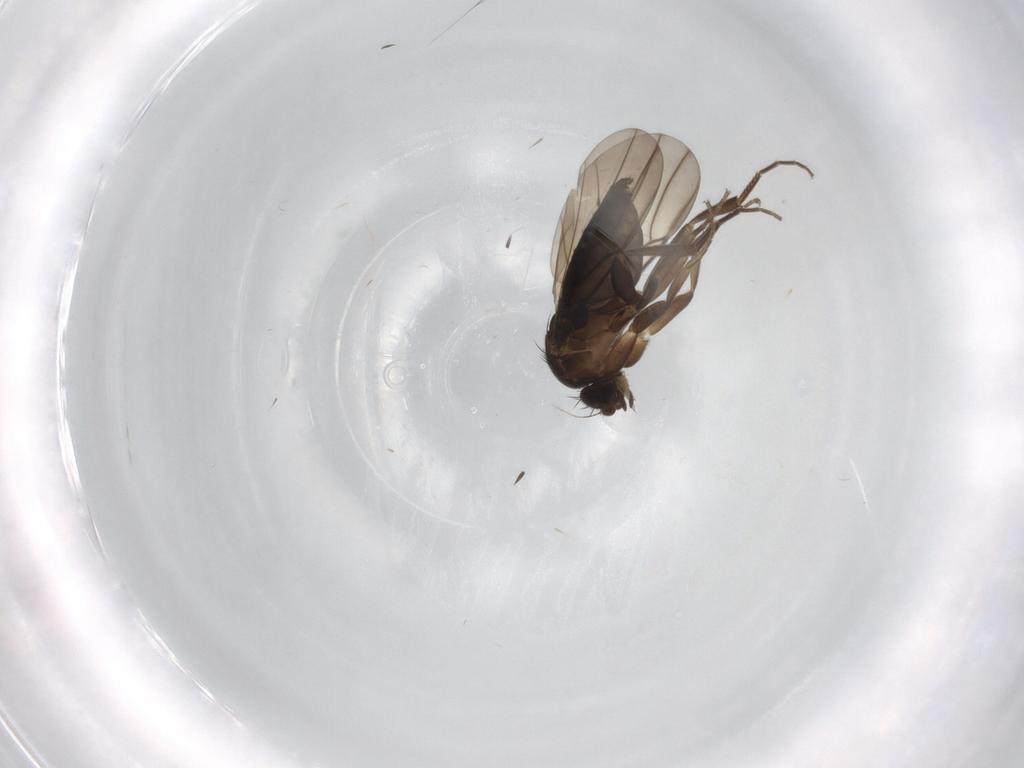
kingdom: Animalia
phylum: Arthropoda
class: Insecta
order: Diptera
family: Phoridae
